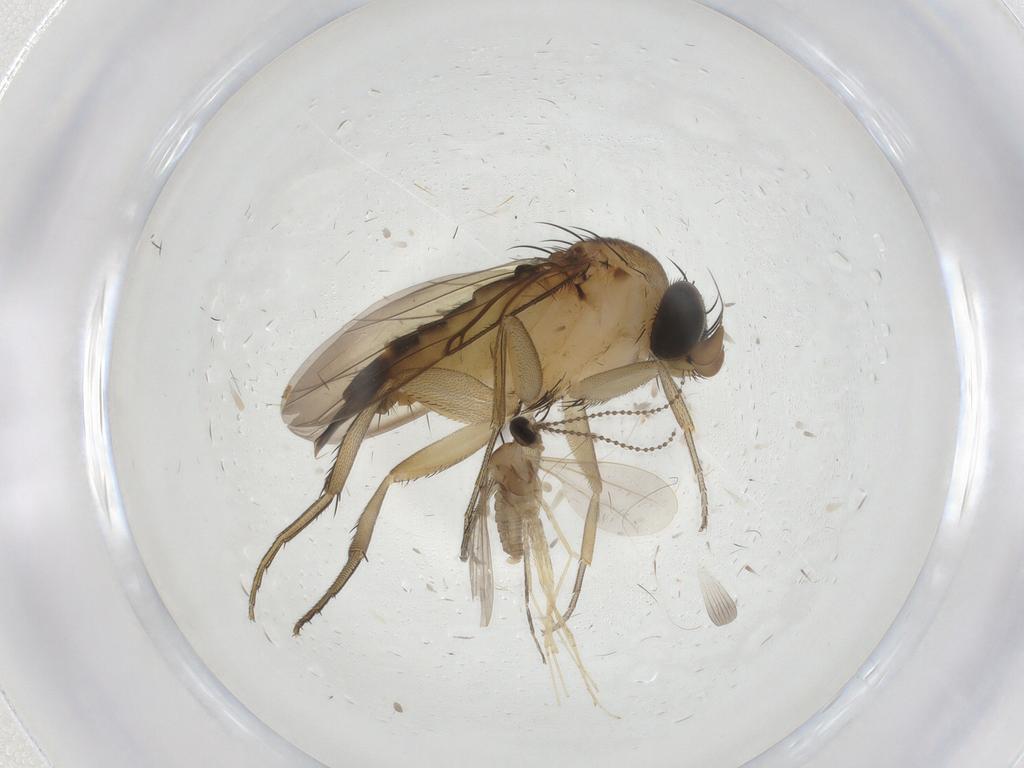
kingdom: Animalia
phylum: Arthropoda
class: Insecta
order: Diptera
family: Cecidomyiidae
